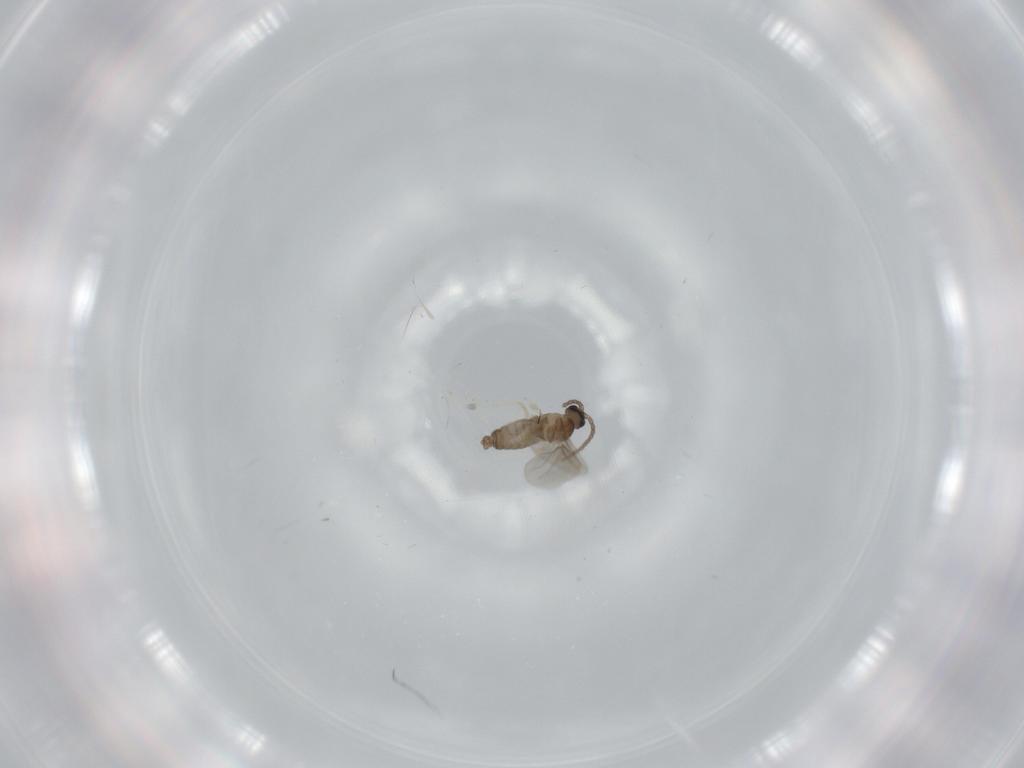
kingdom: Animalia
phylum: Arthropoda
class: Insecta
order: Diptera
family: Cecidomyiidae
